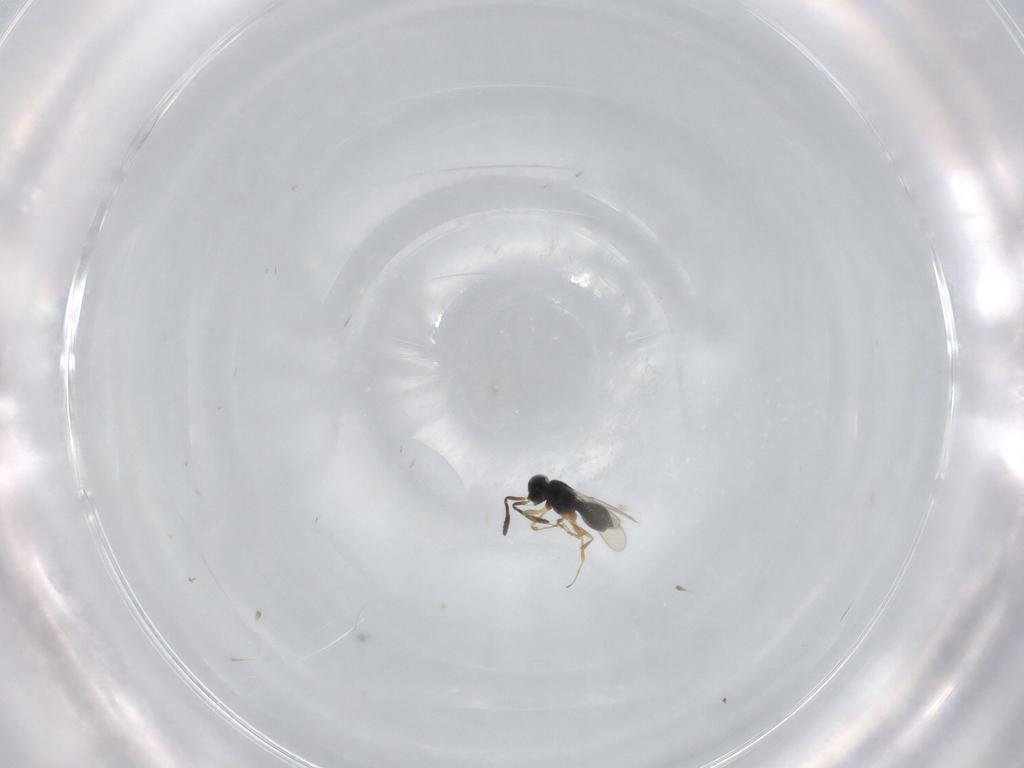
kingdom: Animalia
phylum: Arthropoda
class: Insecta
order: Hymenoptera
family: Scelionidae
